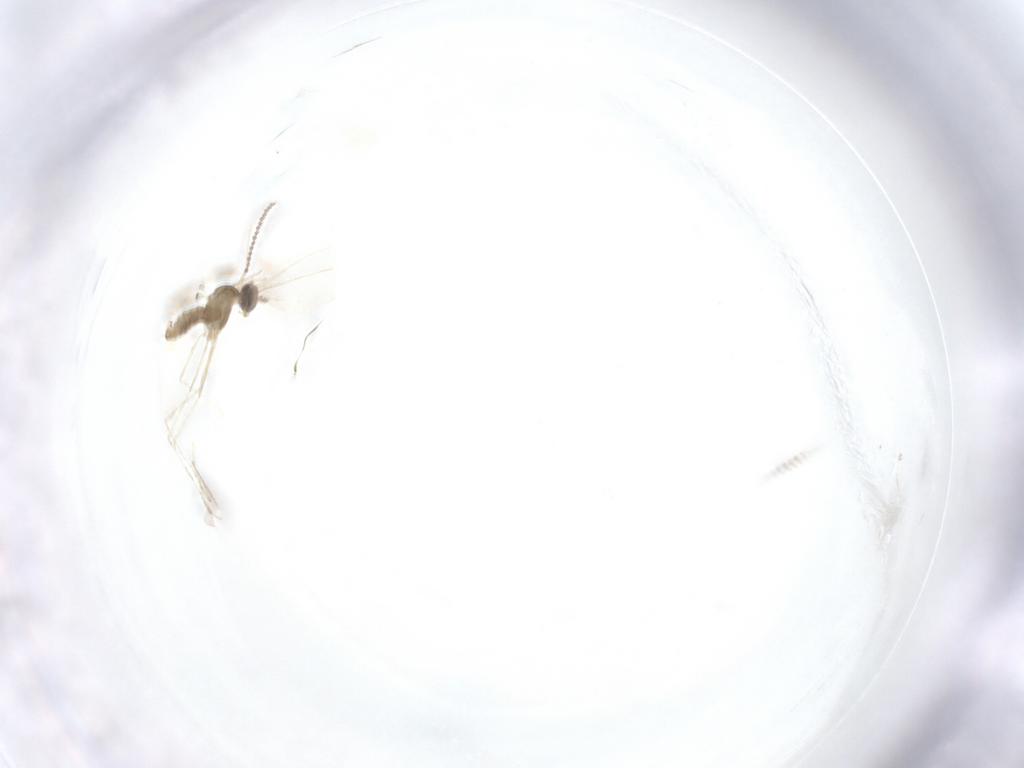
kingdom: Animalia
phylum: Arthropoda
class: Insecta
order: Diptera
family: Cecidomyiidae
